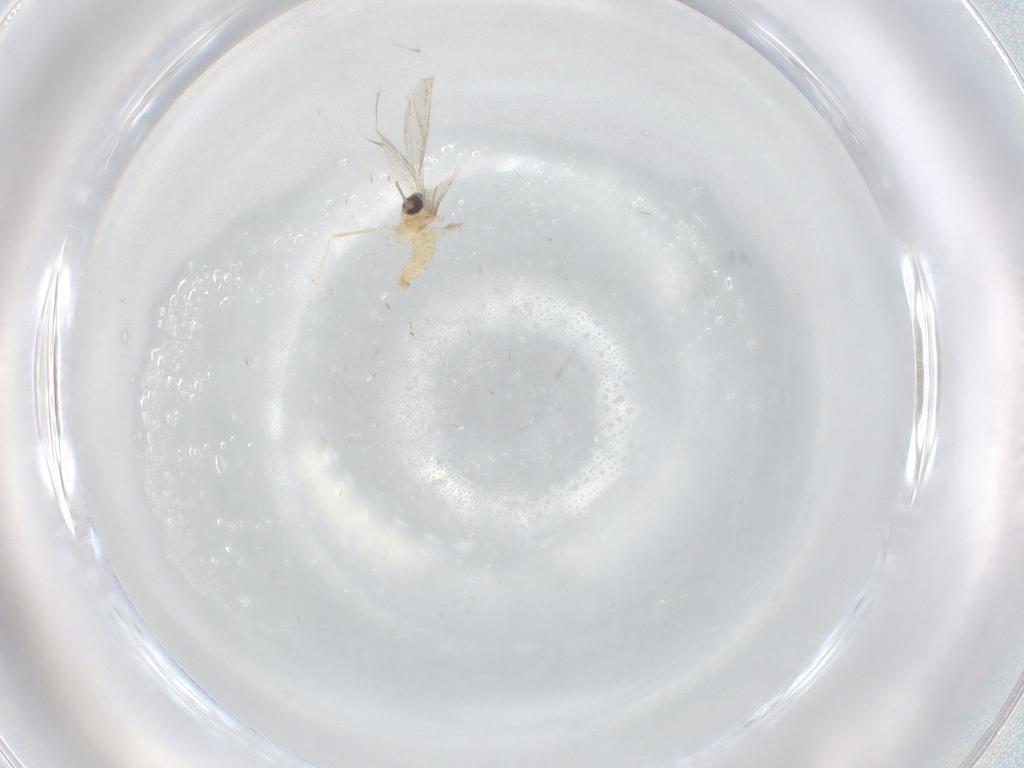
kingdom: Animalia
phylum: Arthropoda
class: Insecta
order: Diptera
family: Cecidomyiidae
